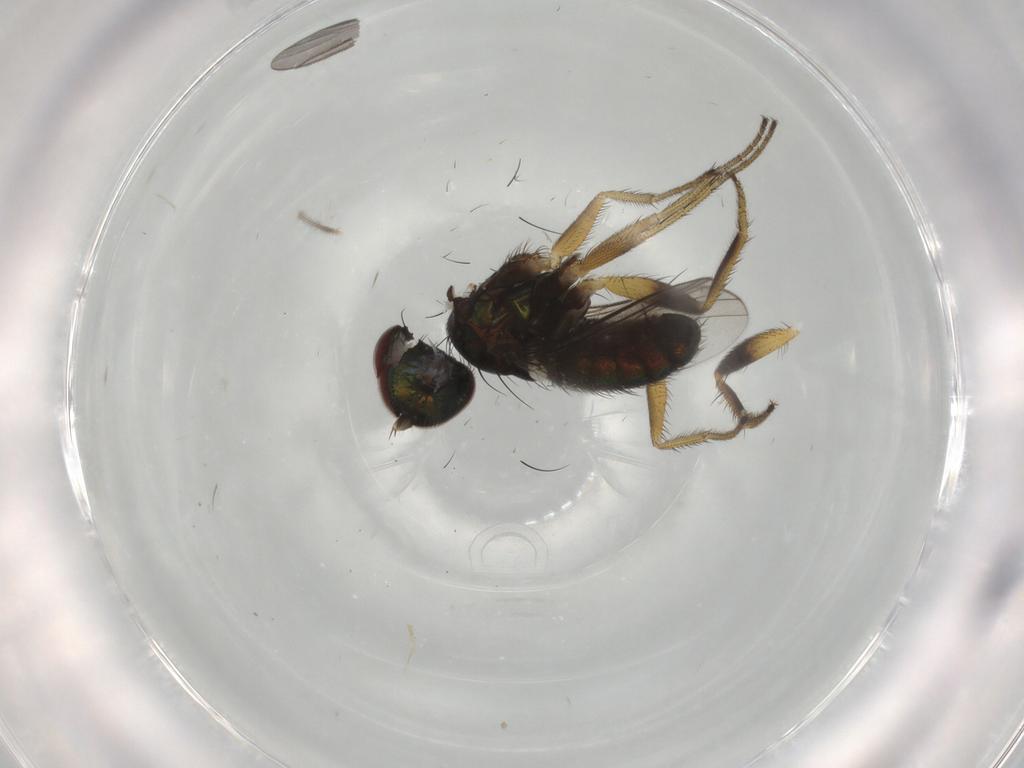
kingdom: Animalia
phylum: Arthropoda
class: Insecta
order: Diptera
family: Dolichopodidae
